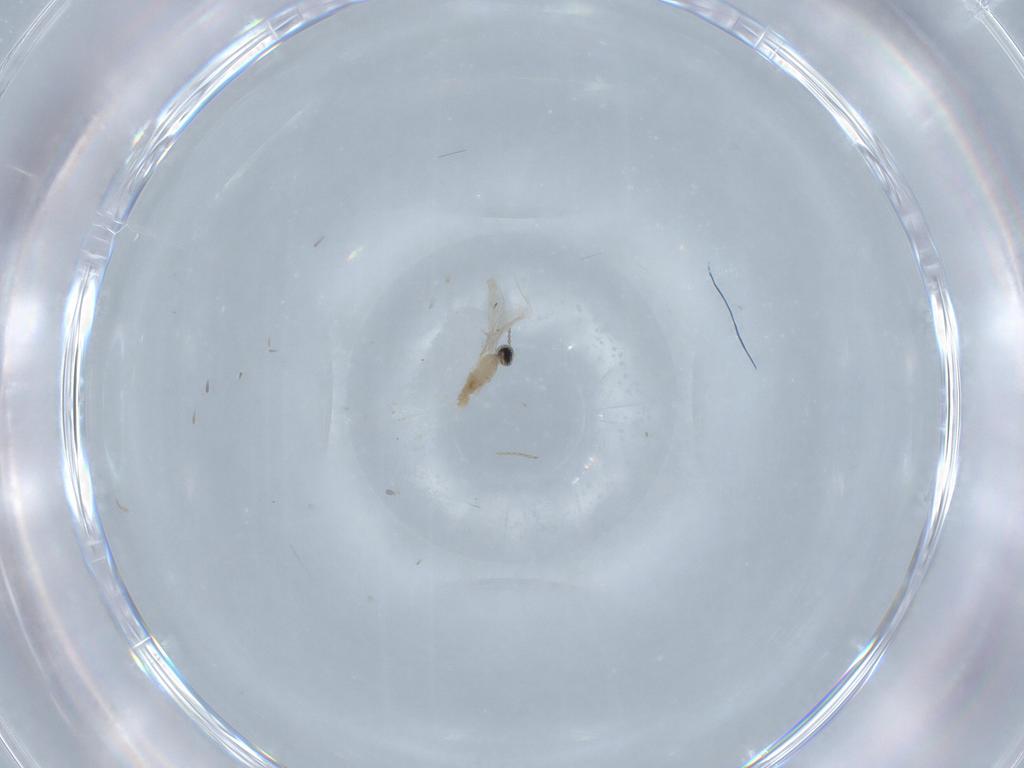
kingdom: Animalia
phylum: Arthropoda
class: Insecta
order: Diptera
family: Cecidomyiidae
